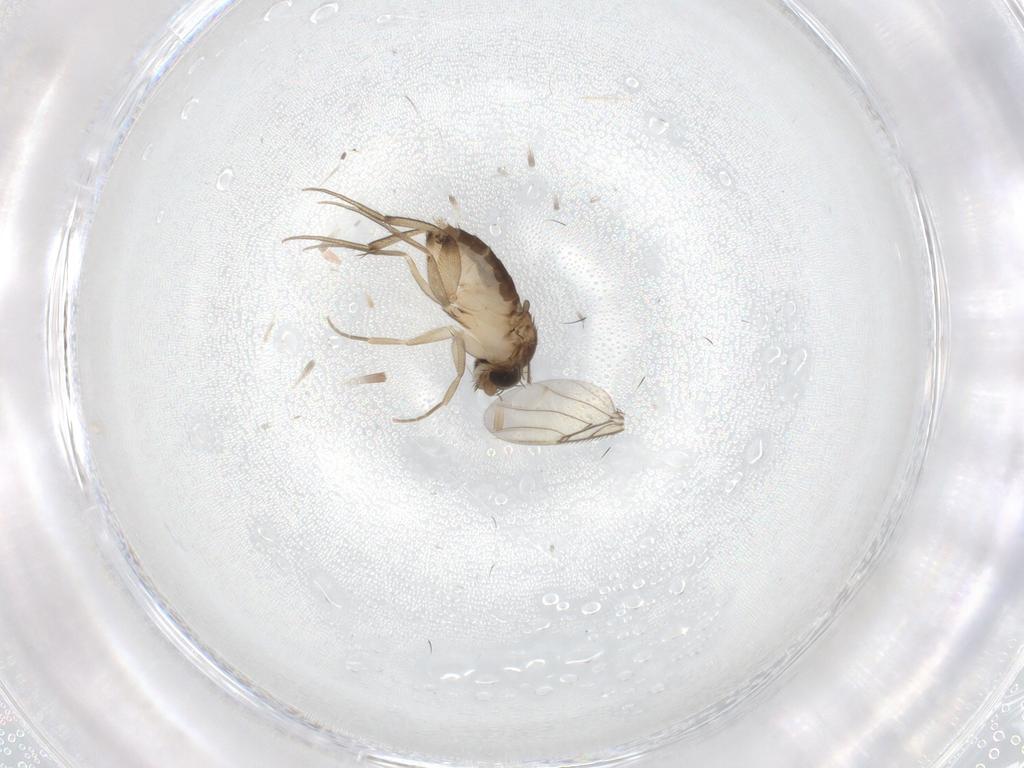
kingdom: Animalia
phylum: Arthropoda
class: Insecta
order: Diptera
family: Phoridae
